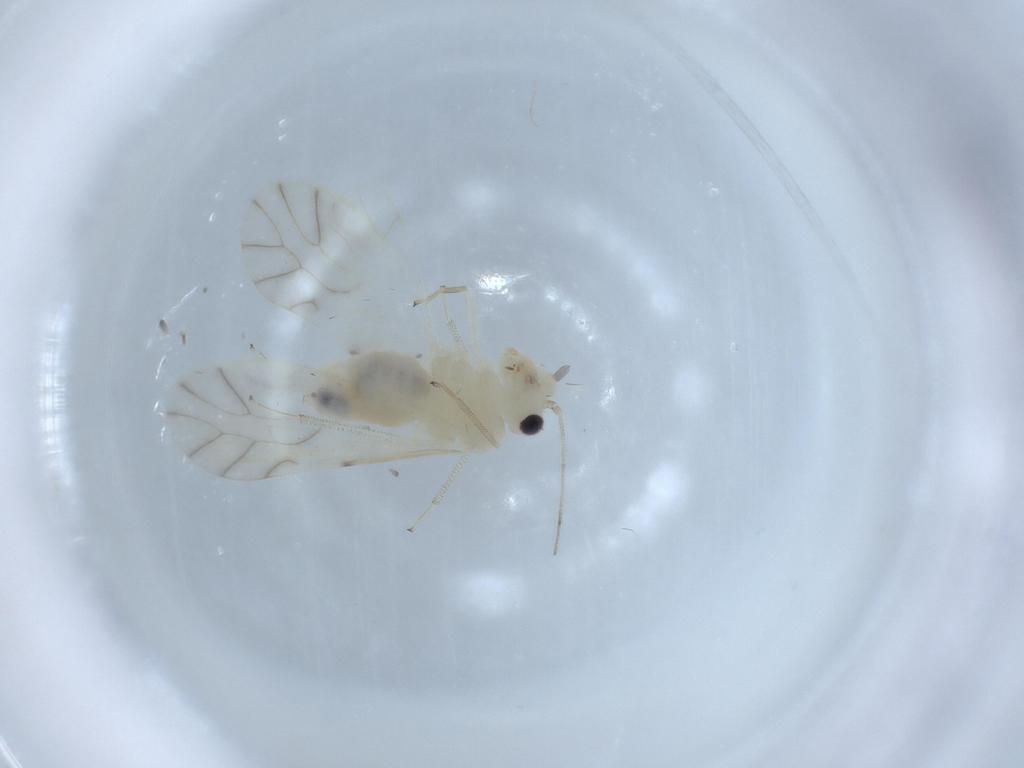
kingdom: Animalia
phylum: Arthropoda
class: Insecta
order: Psocodea
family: Caeciliusidae
